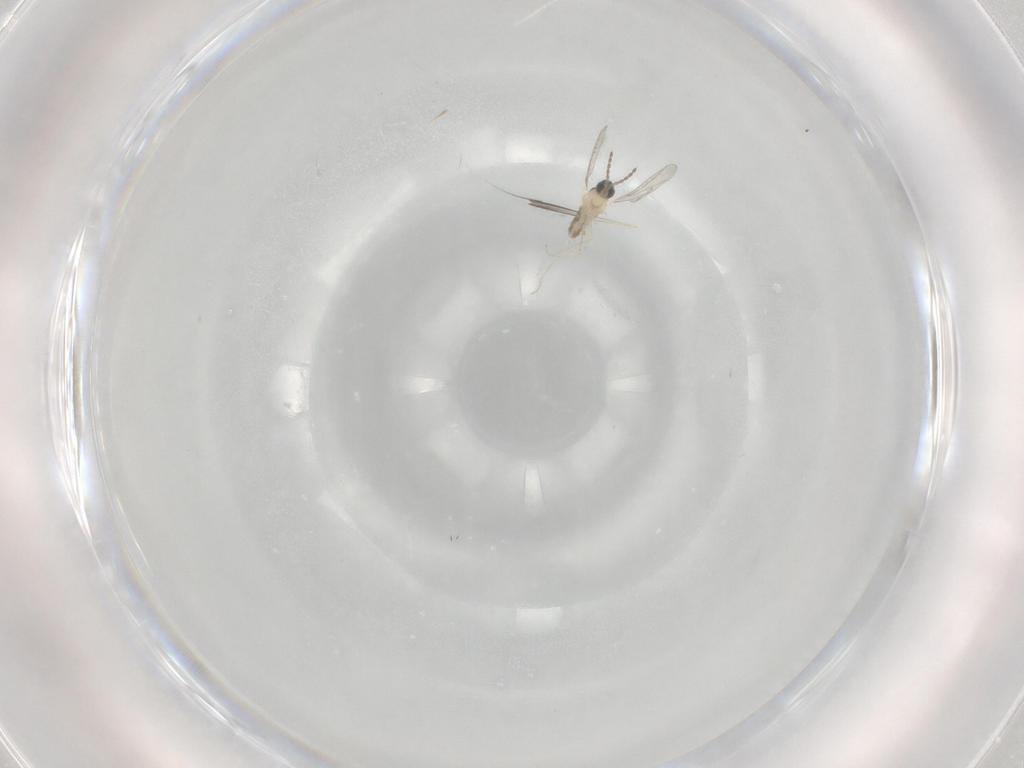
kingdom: Animalia
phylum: Arthropoda
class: Insecta
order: Diptera
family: Cecidomyiidae
